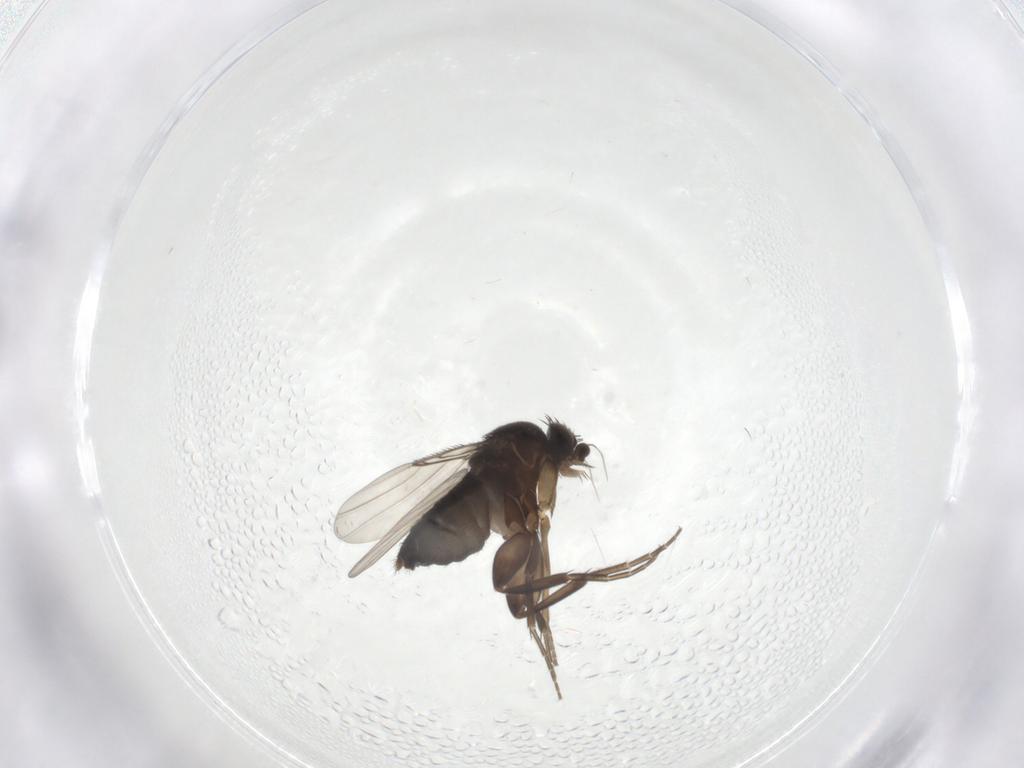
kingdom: Animalia
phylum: Arthropoda
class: Insecta
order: Diptera
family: Phoridae
